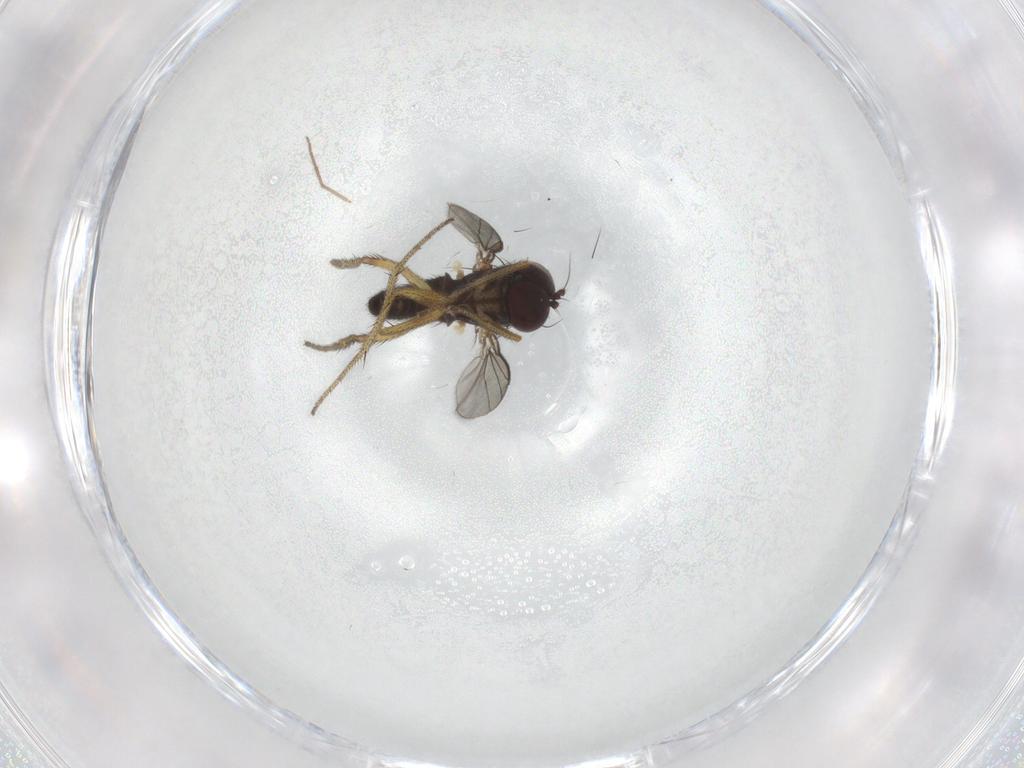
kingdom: Animalia
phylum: Arthropoda
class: Insecta
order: Diptera
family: Dolichopodidae
